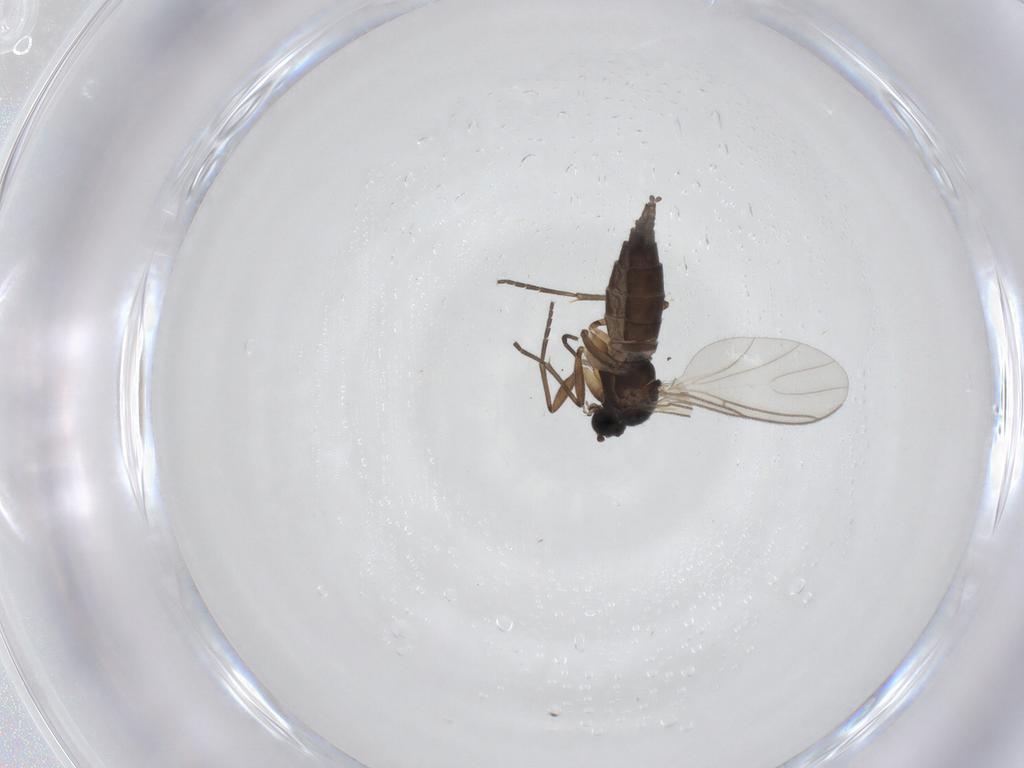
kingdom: Animalia
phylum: Arthropoda
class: Insecta
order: Diptera
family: Sciaridae
